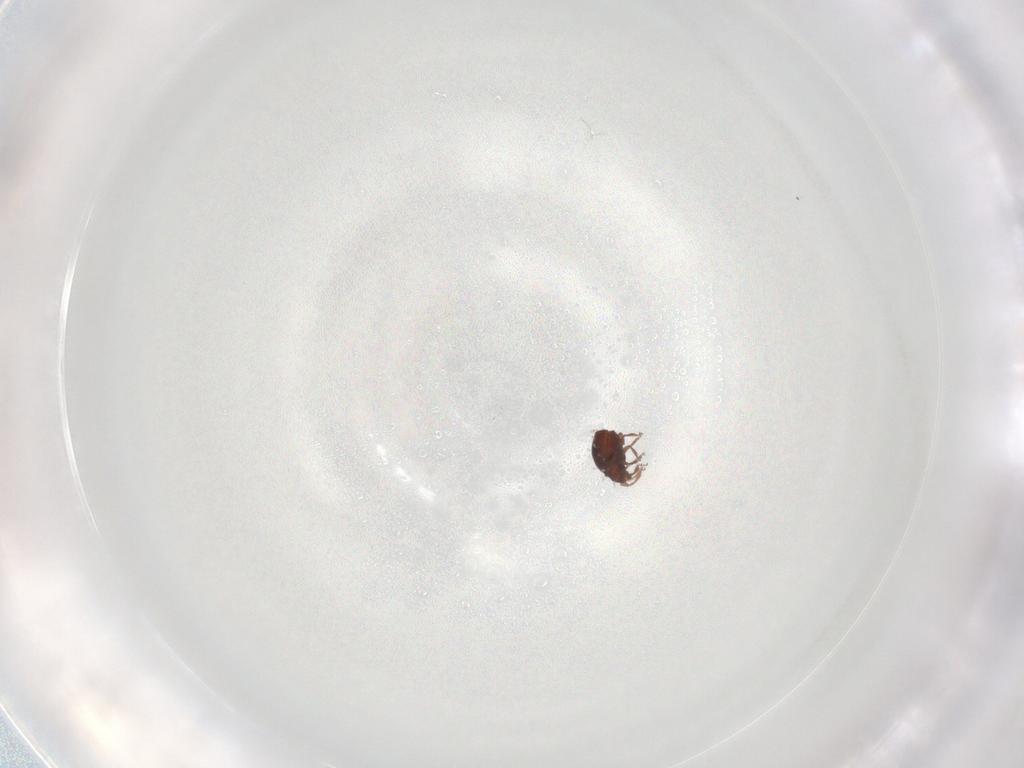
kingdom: Animalia
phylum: Arthropoda
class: Arachnida
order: Sarcoptiformes
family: Scheloribatidae
